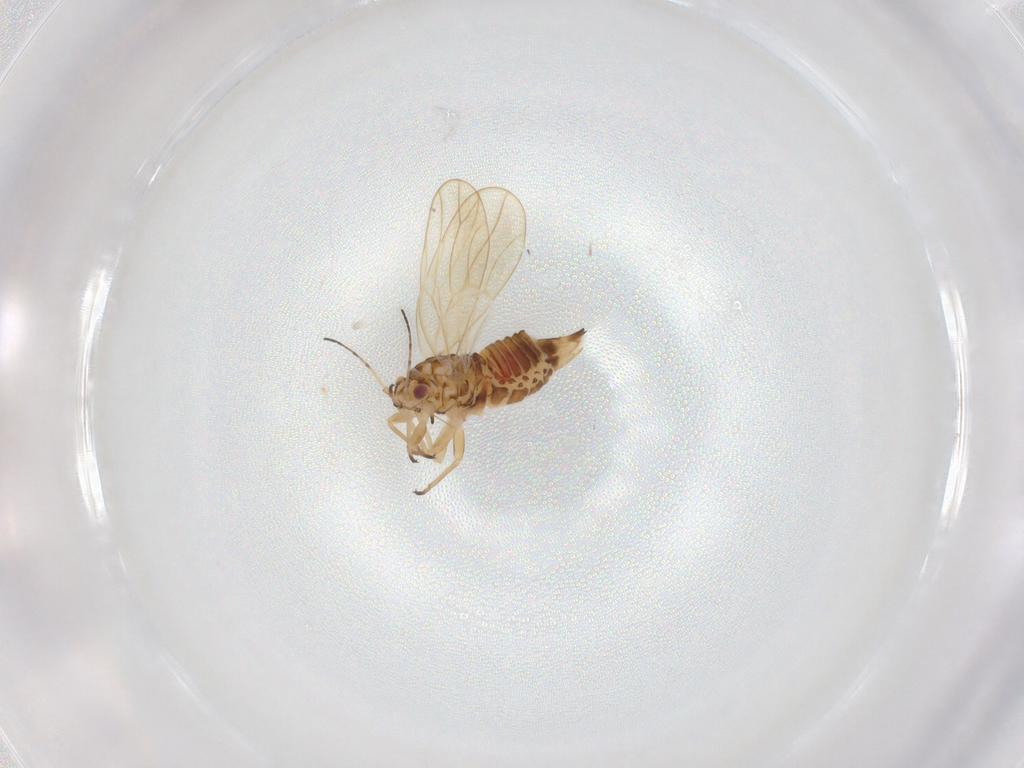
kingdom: Animalia
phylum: Arthropoda
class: Insecta
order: Hemiptera
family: Psylloidea_incertae_sedis
